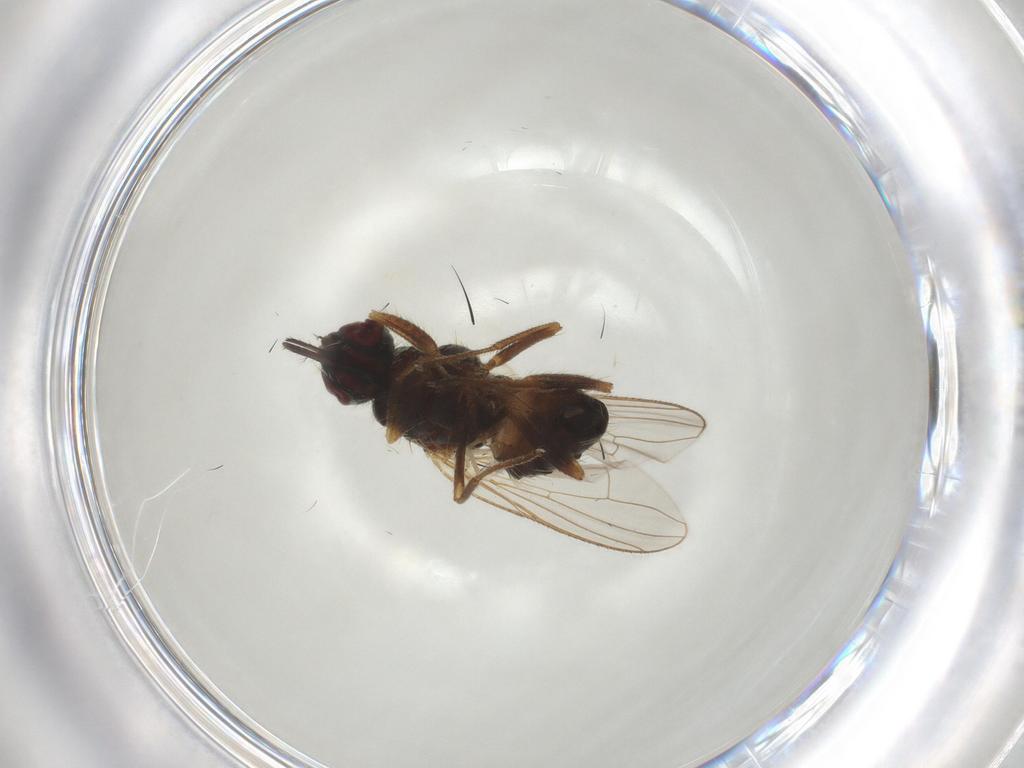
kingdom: Animalia
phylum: Arthropoda
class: Insecta
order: Diptera
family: Muscidae
